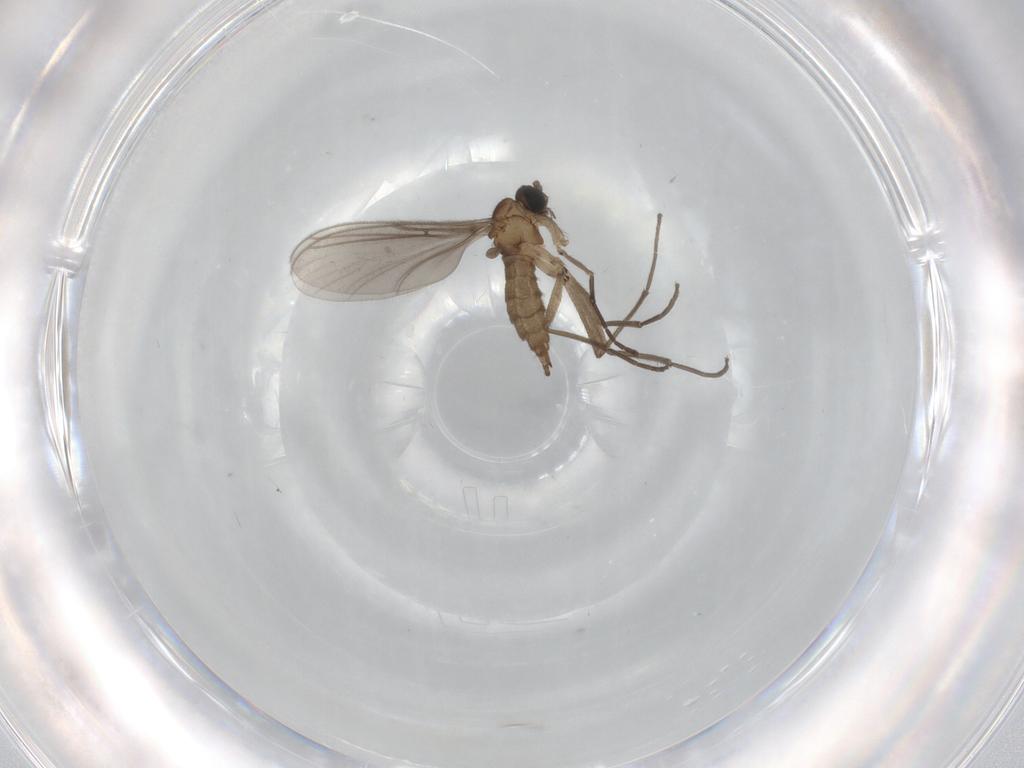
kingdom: Animalia
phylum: Arthropoda
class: Insecta
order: Diptera
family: Sciaridae
